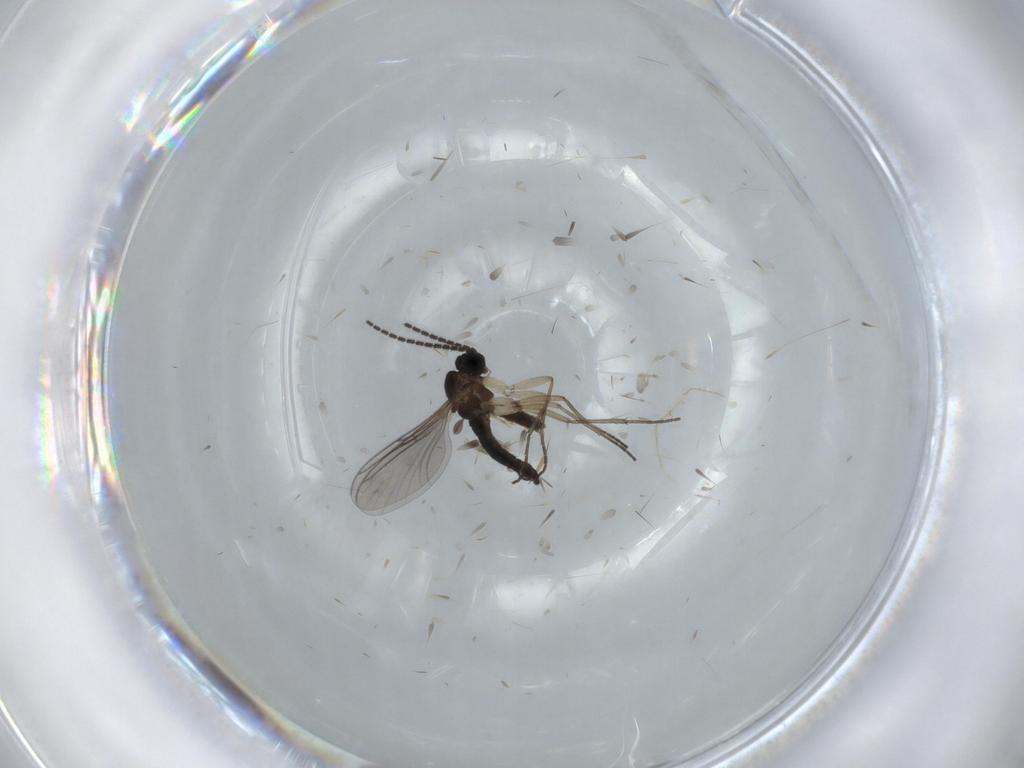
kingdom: Animalia
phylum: Arthropoda
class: Insecta
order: Diptera
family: Sciaridae
